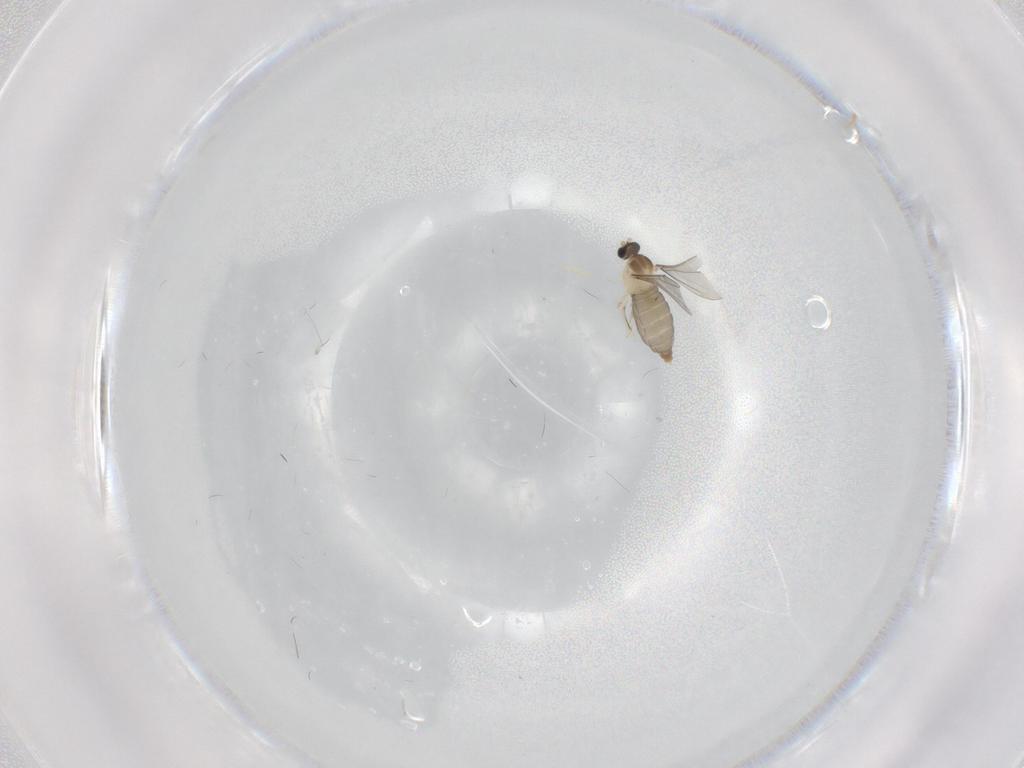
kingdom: Animalia
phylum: Arthropoda
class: Insecta
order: Diptera
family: Cecidomyiidae
